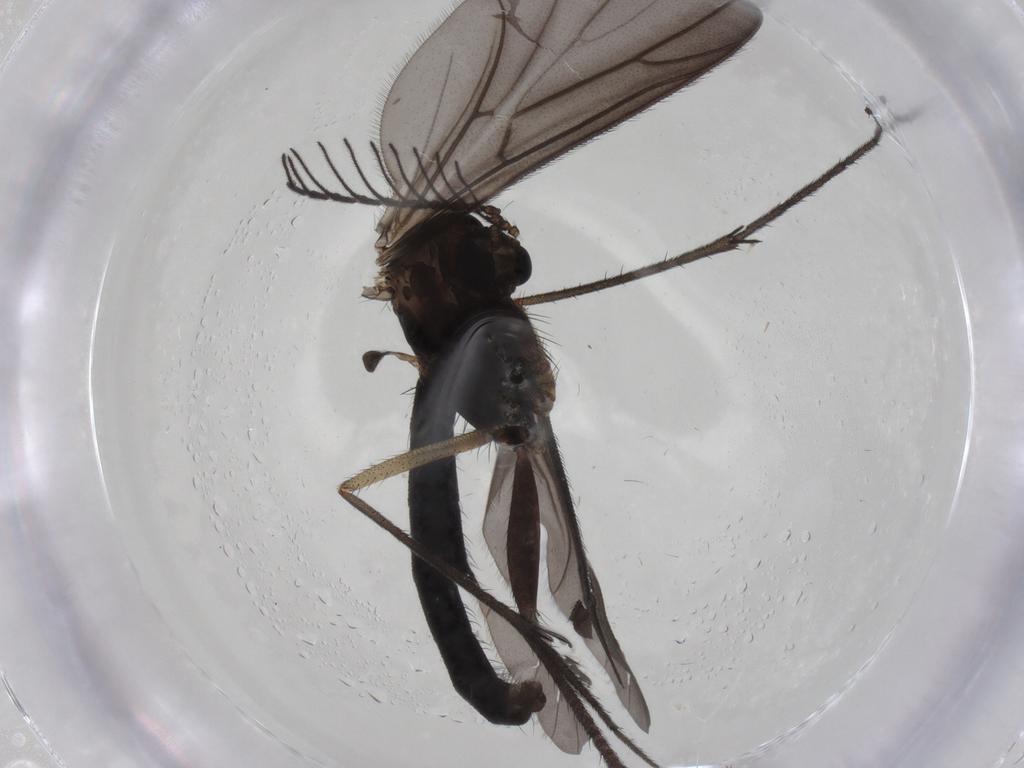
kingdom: Animalia
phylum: Arthropoda
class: Insecta
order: Diptera
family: Ditomyiidae
